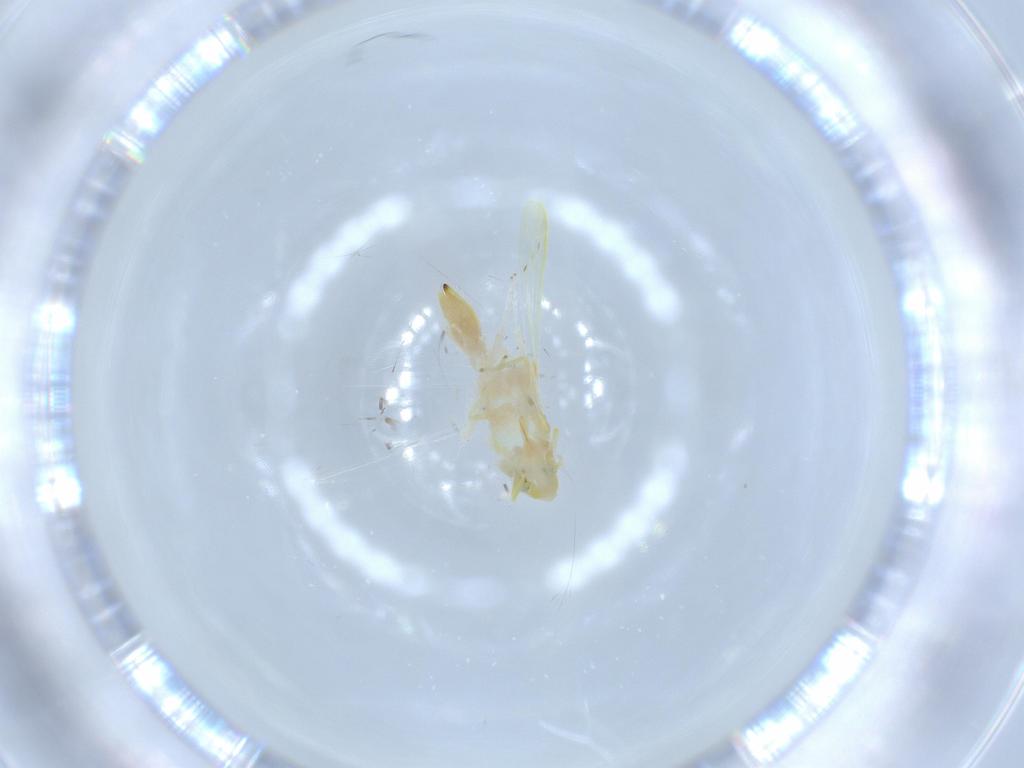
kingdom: Animalia
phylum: Arthropoda
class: Insecta
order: Hemiptera
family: Cicadellidae
